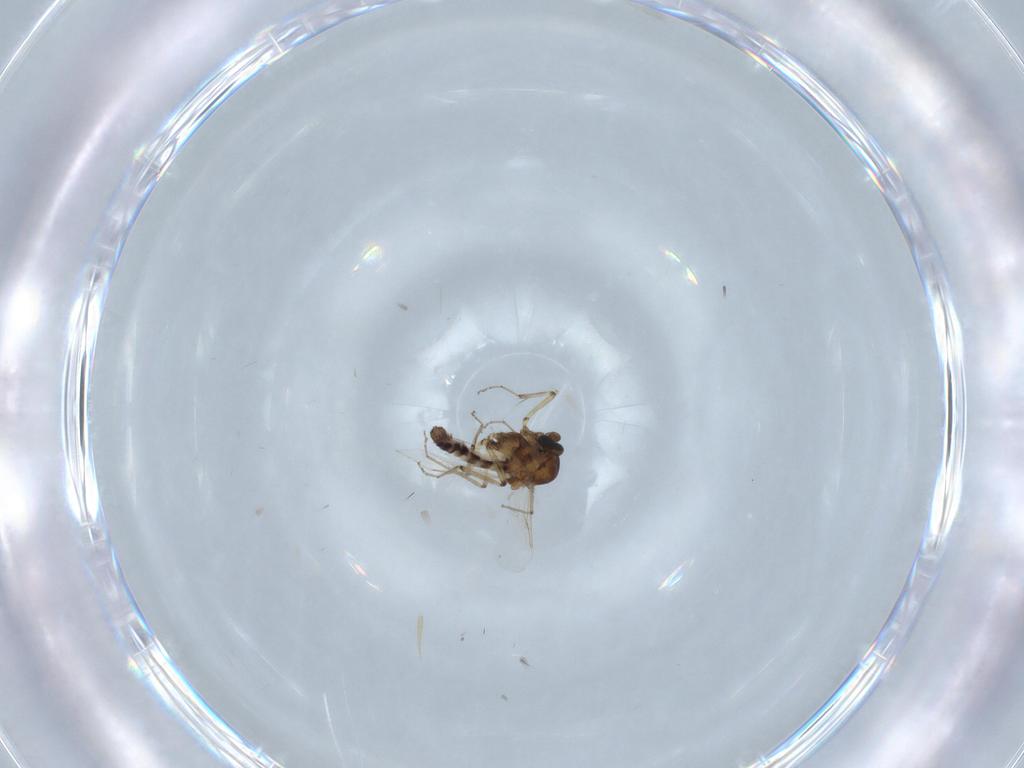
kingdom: Animalia
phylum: Arthropoda
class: Insecta
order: Diptera
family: Ceratopogonidae
